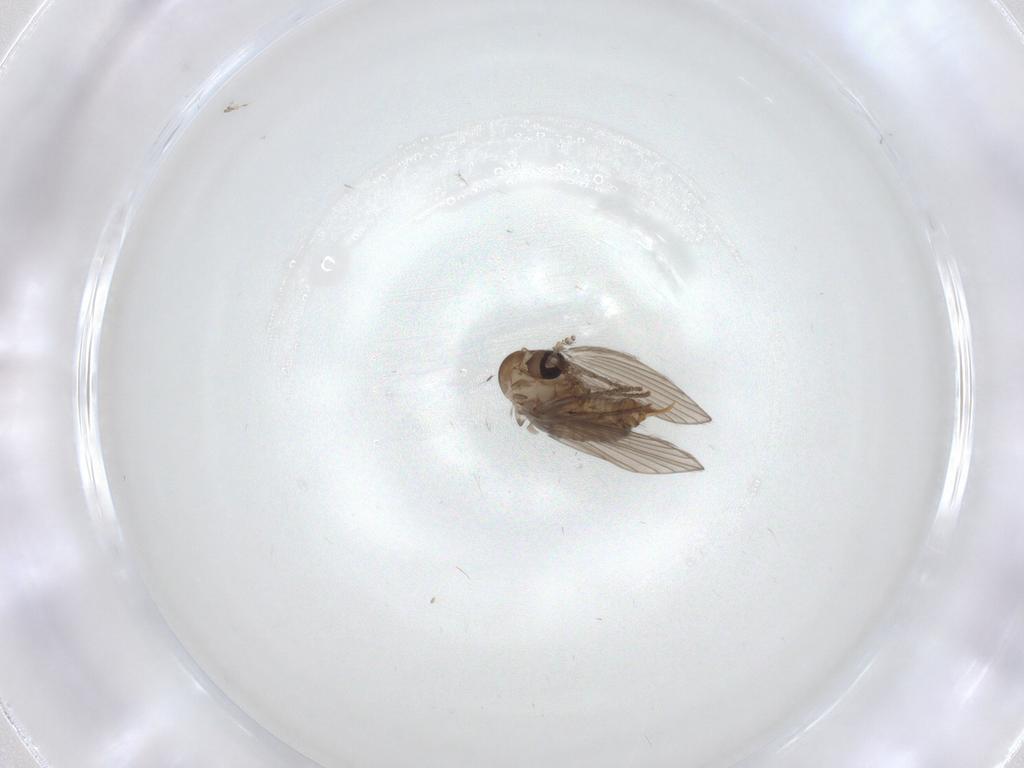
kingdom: Animalia
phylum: Arthropoda
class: Insecta
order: Diptera
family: Chironomidae
